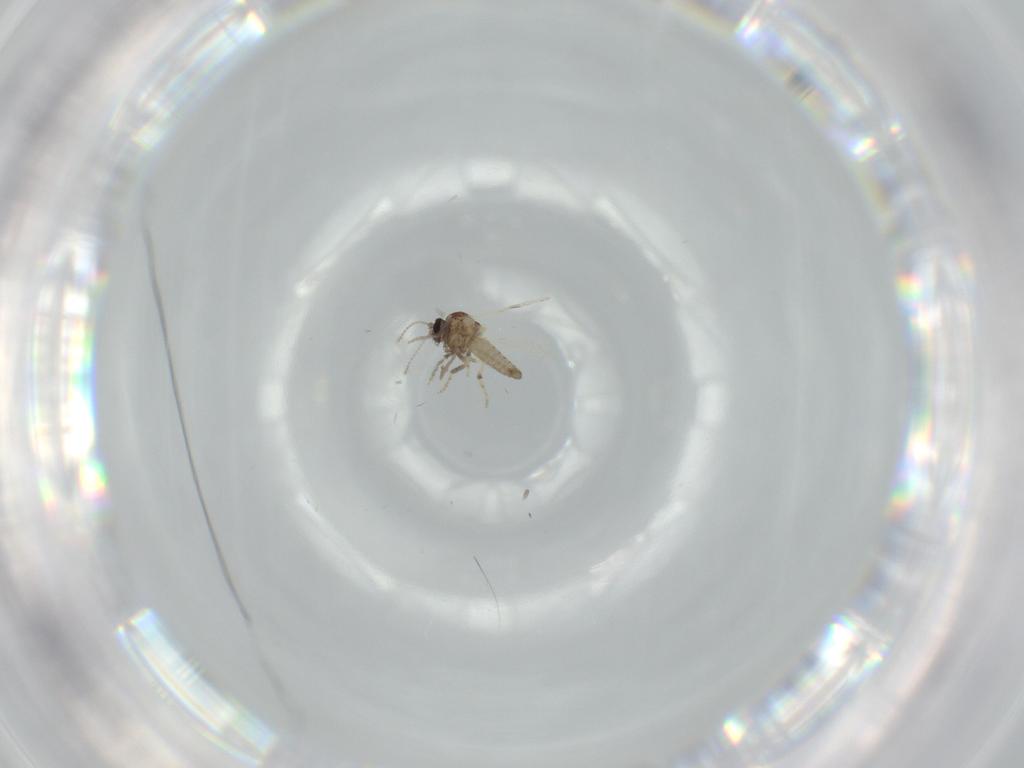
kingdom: Animalia
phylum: Arthropoda
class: Insecta
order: Diptera
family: Ceratopogonidae
